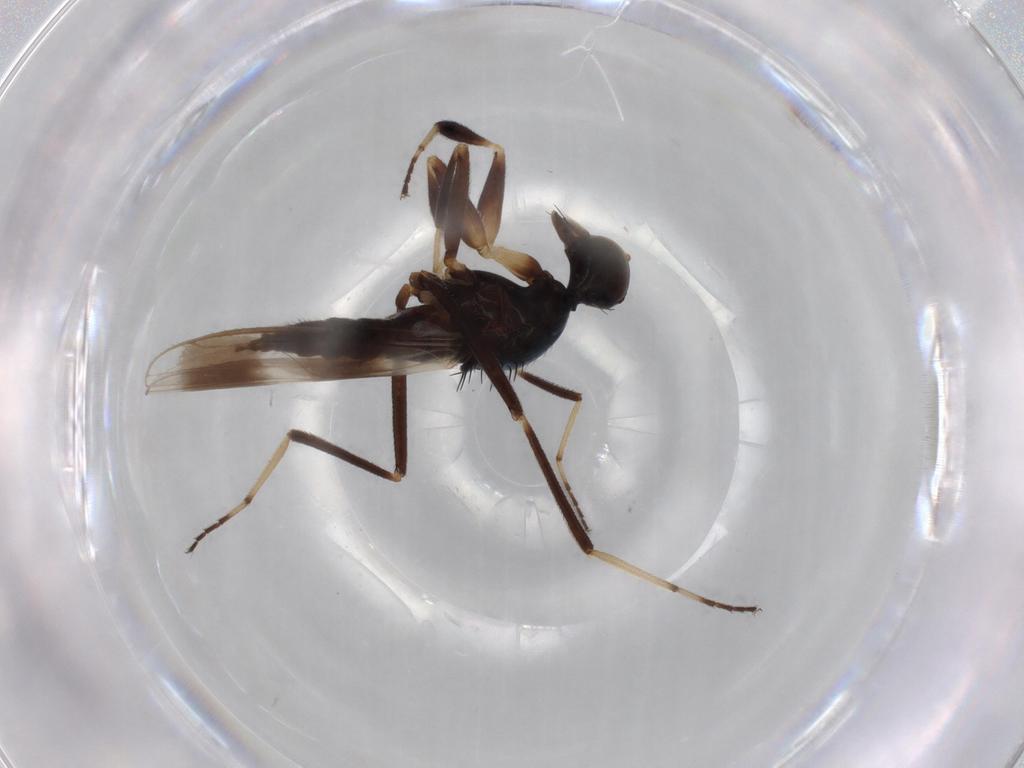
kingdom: Animalia
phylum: Arthropoda
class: Insecta
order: Diptera
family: Hybotidae
